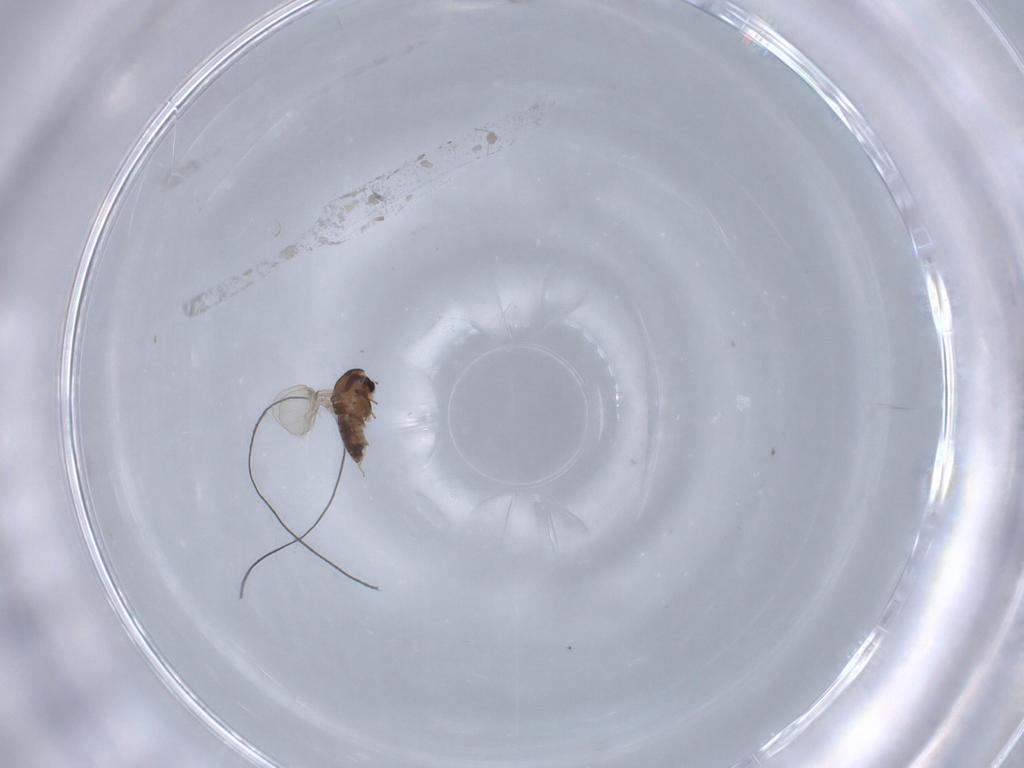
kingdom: Animalia
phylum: Arthropoda
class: Insecta
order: Diptera
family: Chironomidae
